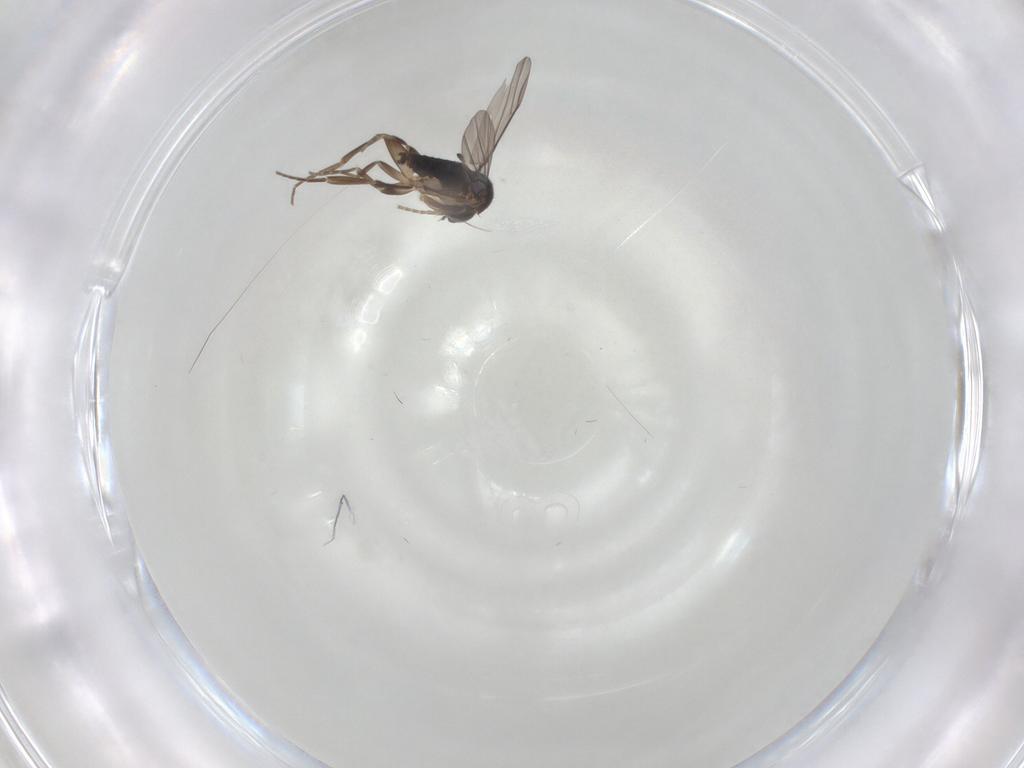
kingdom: Animalia
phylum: Arthropoda
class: Insecta
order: Diptera
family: Phoridae
